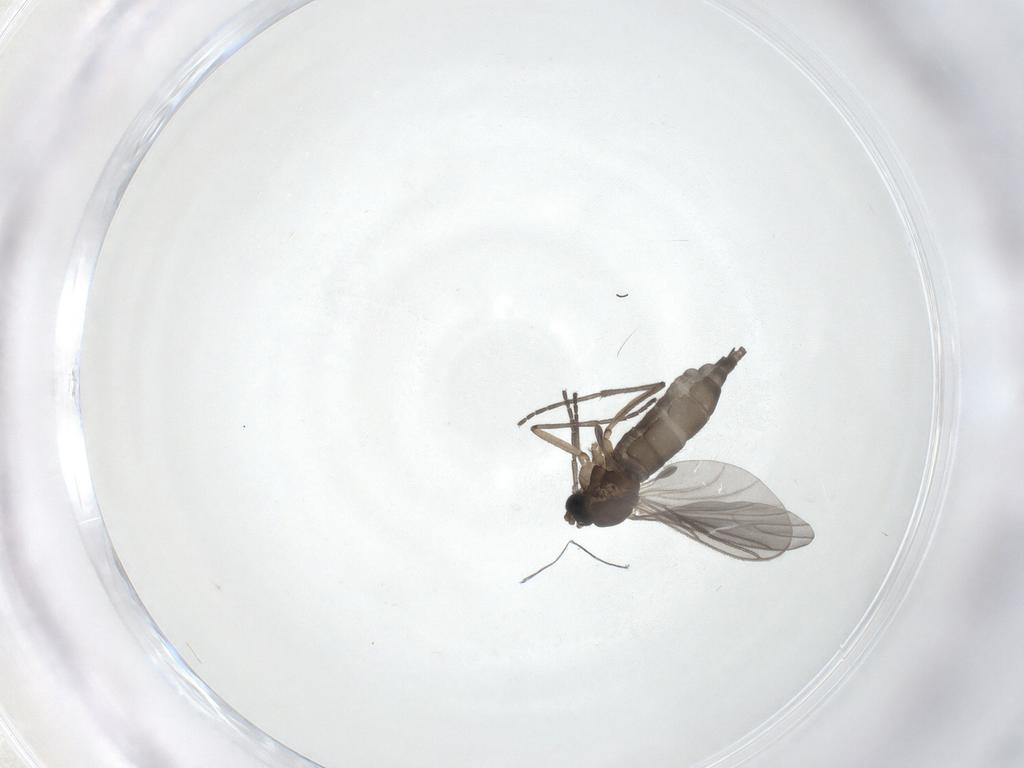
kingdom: Animalia
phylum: Arthropoda
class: Insecta
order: Diptera
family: Sciaridae
